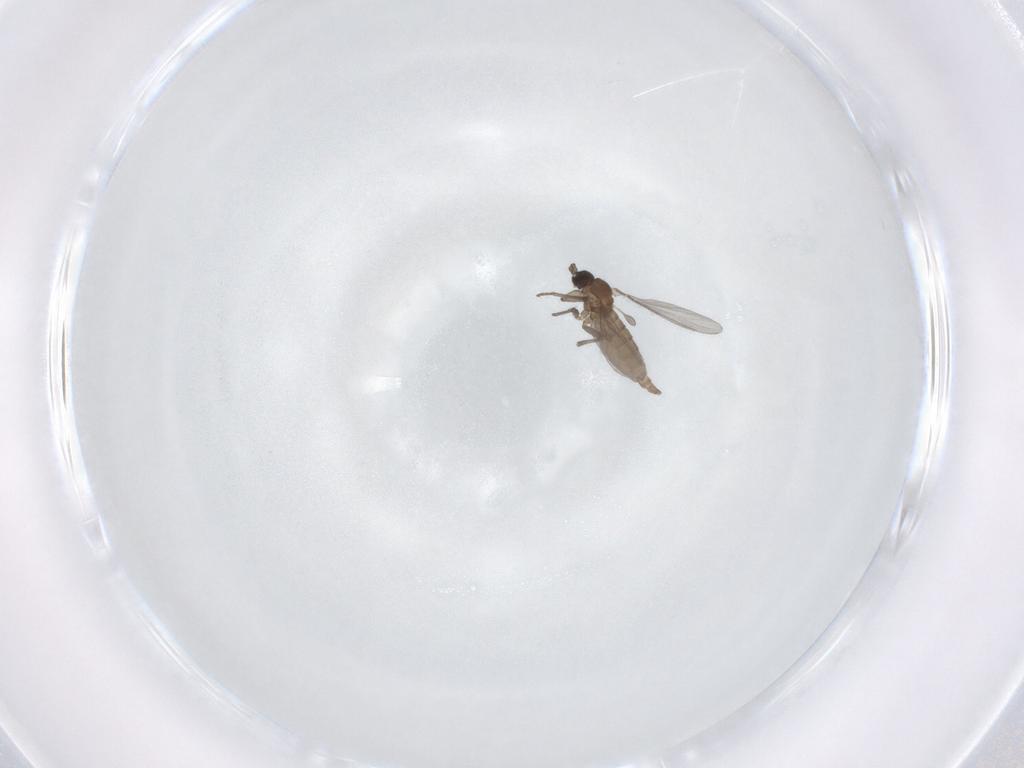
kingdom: Animalia
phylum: Arthropoda
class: Insecta
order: Diptera
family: Sciaridae
